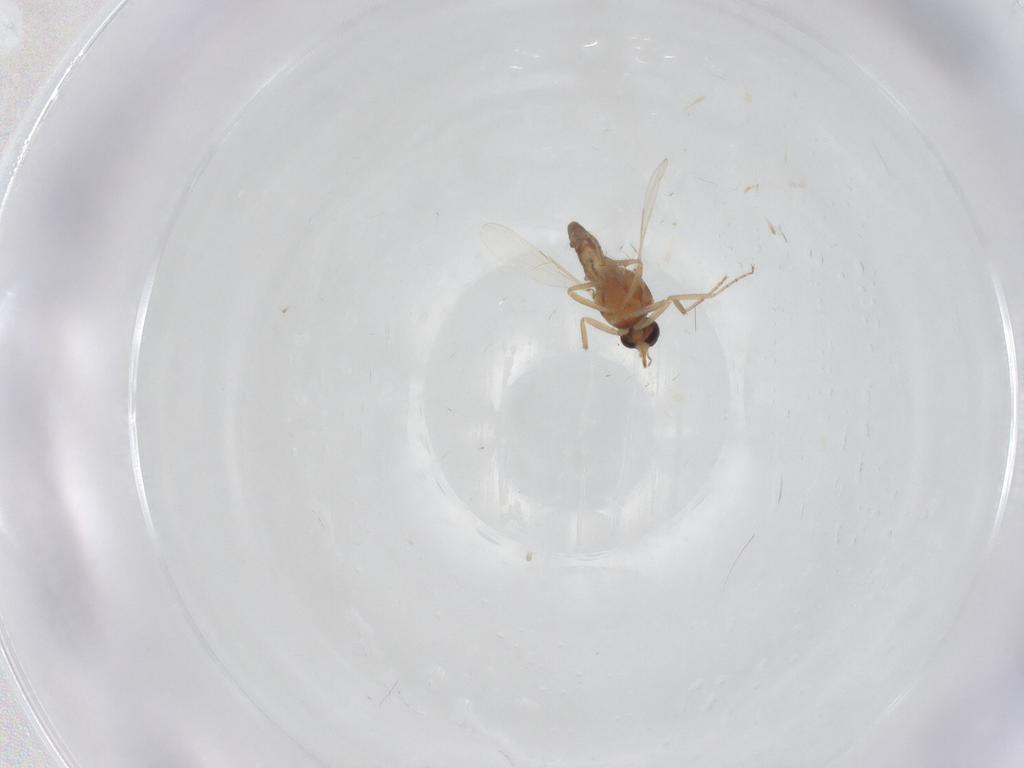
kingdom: Animalia
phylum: Arthropoda
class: Insecta
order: Diptera
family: Ceratopogonidae
